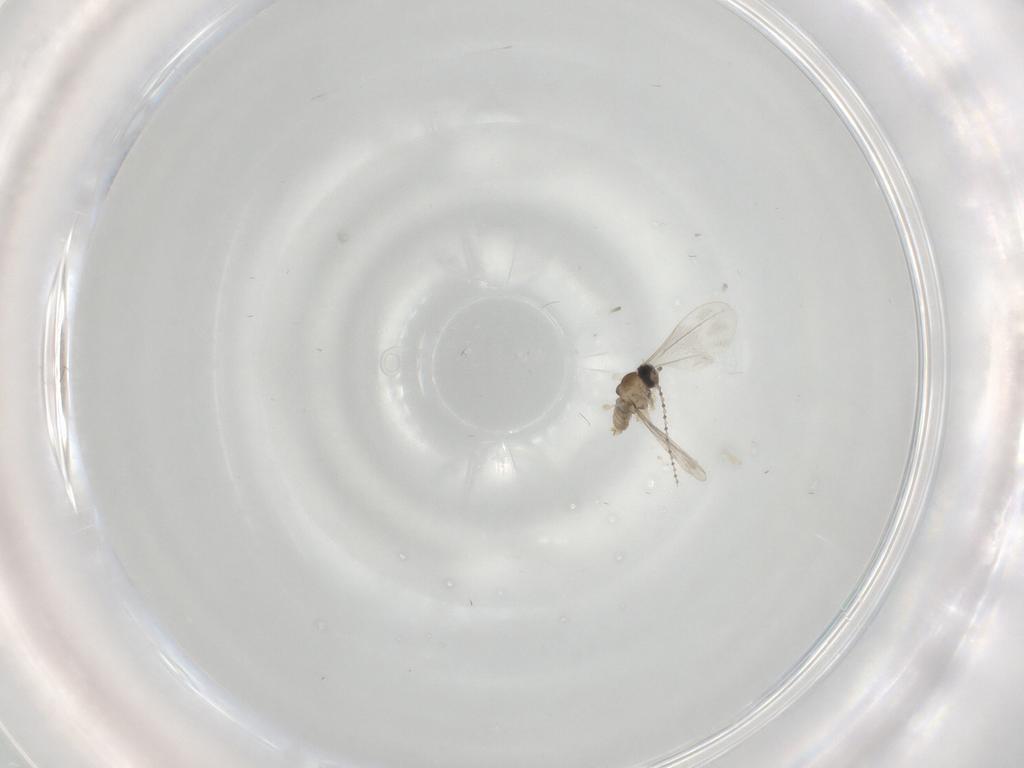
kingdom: Animalia
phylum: Arthropoda
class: Insecta
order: Diptera
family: Cecidomyiidae
